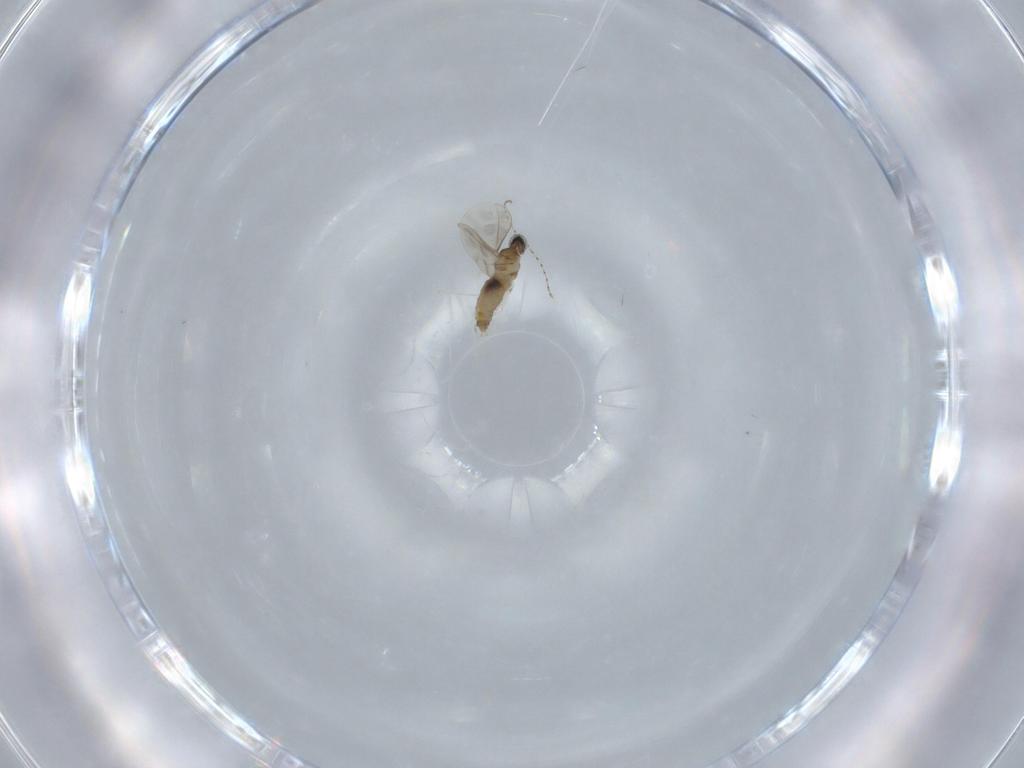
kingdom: Animalia
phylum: Arthropoda
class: Insecta
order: Diptera
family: Cecidomyiidae
